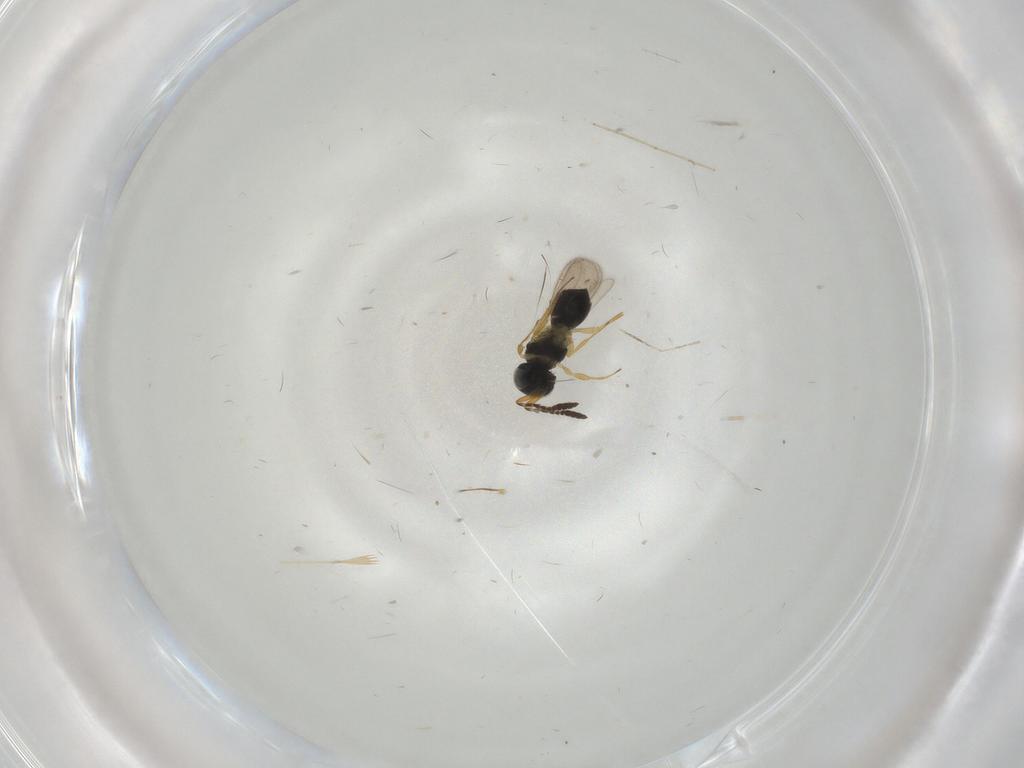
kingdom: Animalia
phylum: Arthropoda
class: Insecta
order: Hymenoptera
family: Scelionidae
